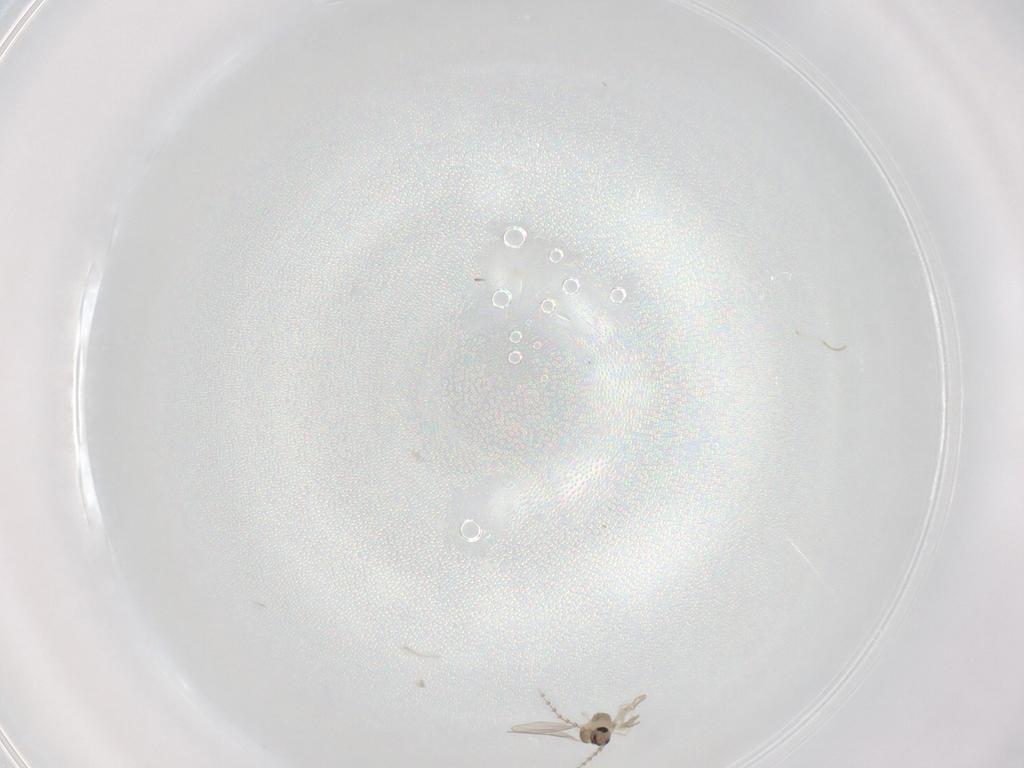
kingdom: Animalia
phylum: Arthropoda
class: Insecta
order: Diptera
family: Cecidomyiidae
